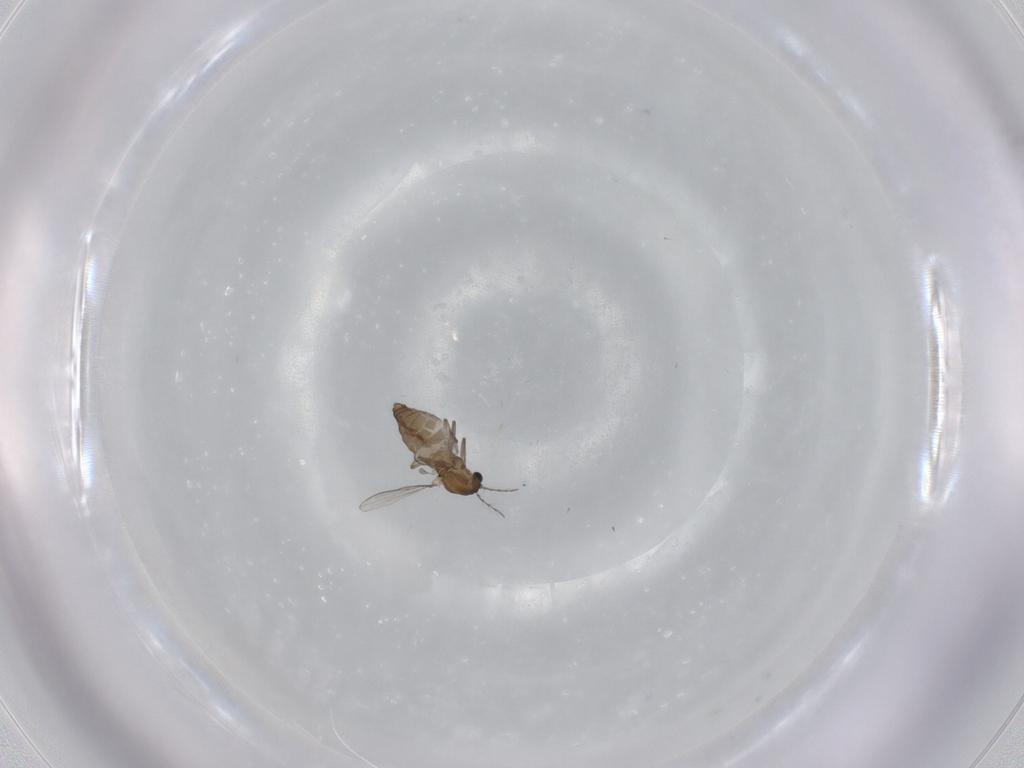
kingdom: Animalia
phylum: Arthropoda
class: Insecta
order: Diptera
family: Chironomidae
